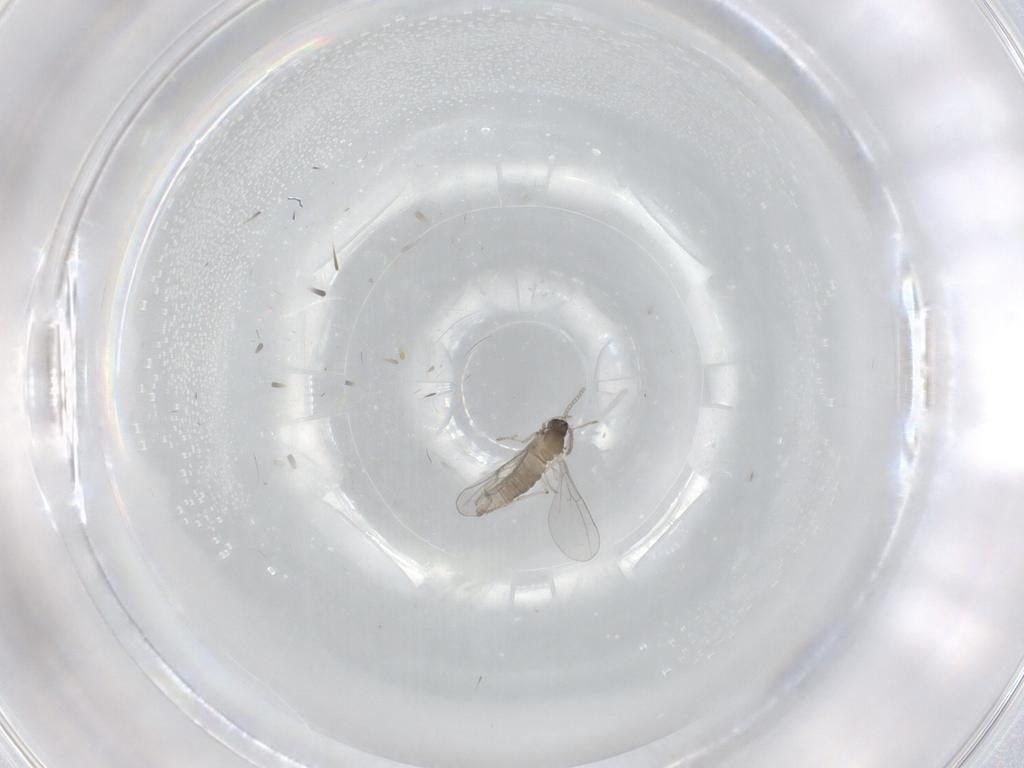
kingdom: Animalia
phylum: Arthropoda
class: Insecta
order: Diptera
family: Cecidomyiidae
